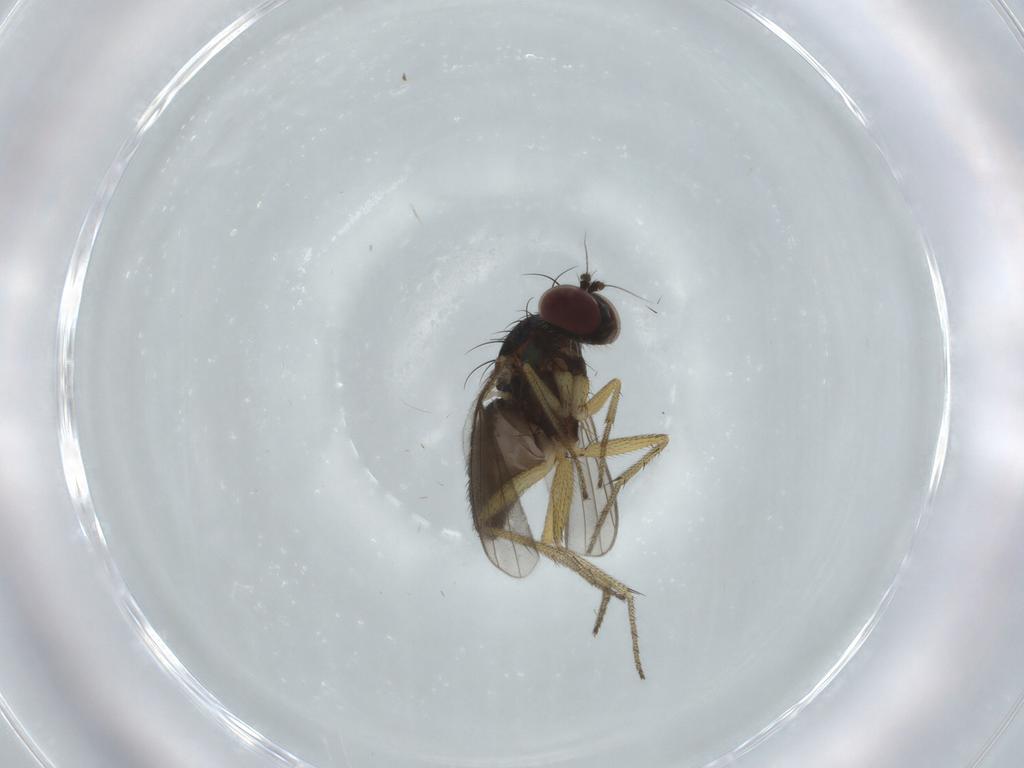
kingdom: Animalia
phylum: Arthropoda
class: Insecta
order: Diptera
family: Dolichopodidae
